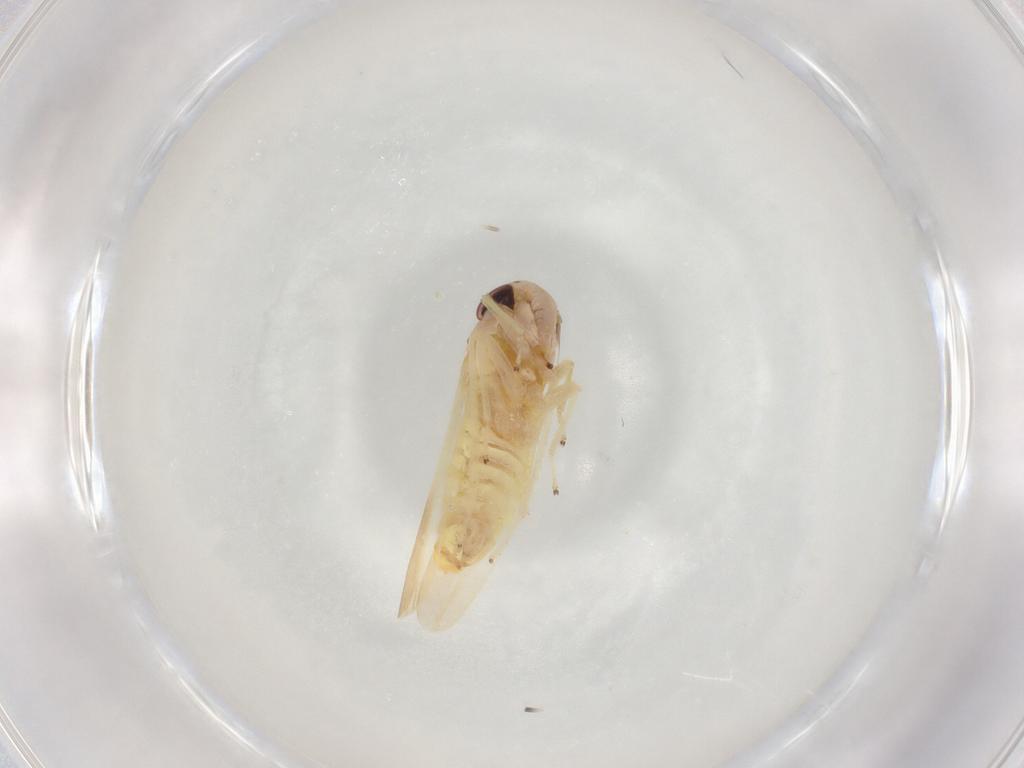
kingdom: Animalia
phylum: Arthropoda
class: Insecta
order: Hemiptera
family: Cicadellidae
